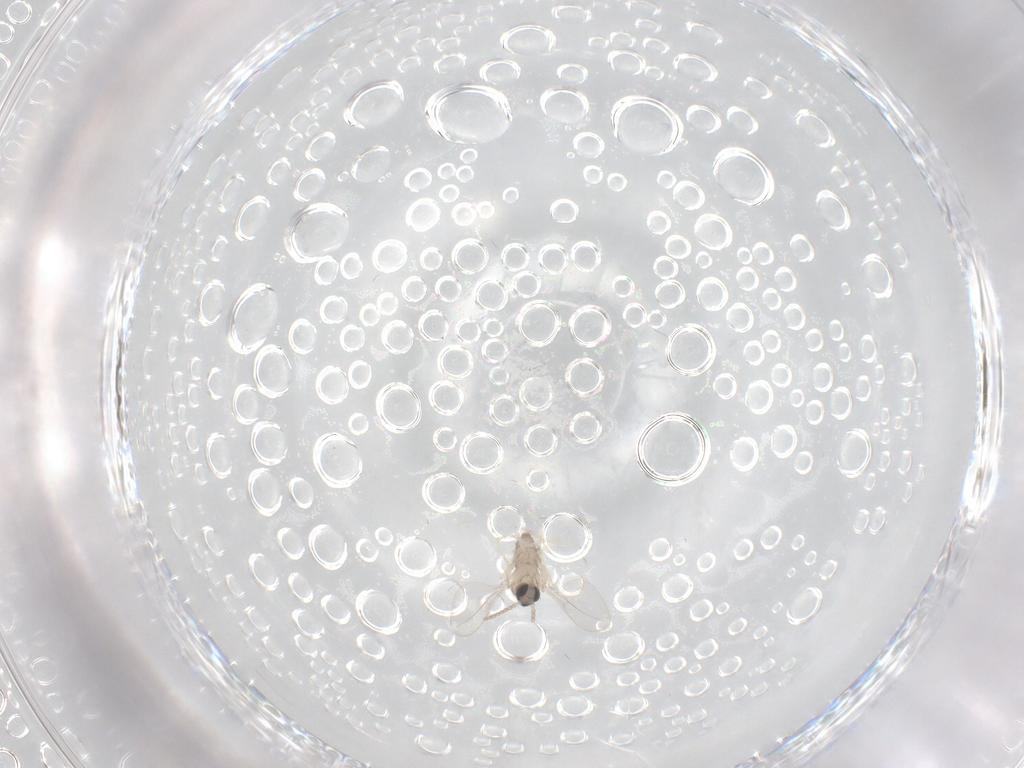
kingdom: Animalia
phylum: Arthropoda
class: Insecta
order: Diptera
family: Cecidomyiidae
